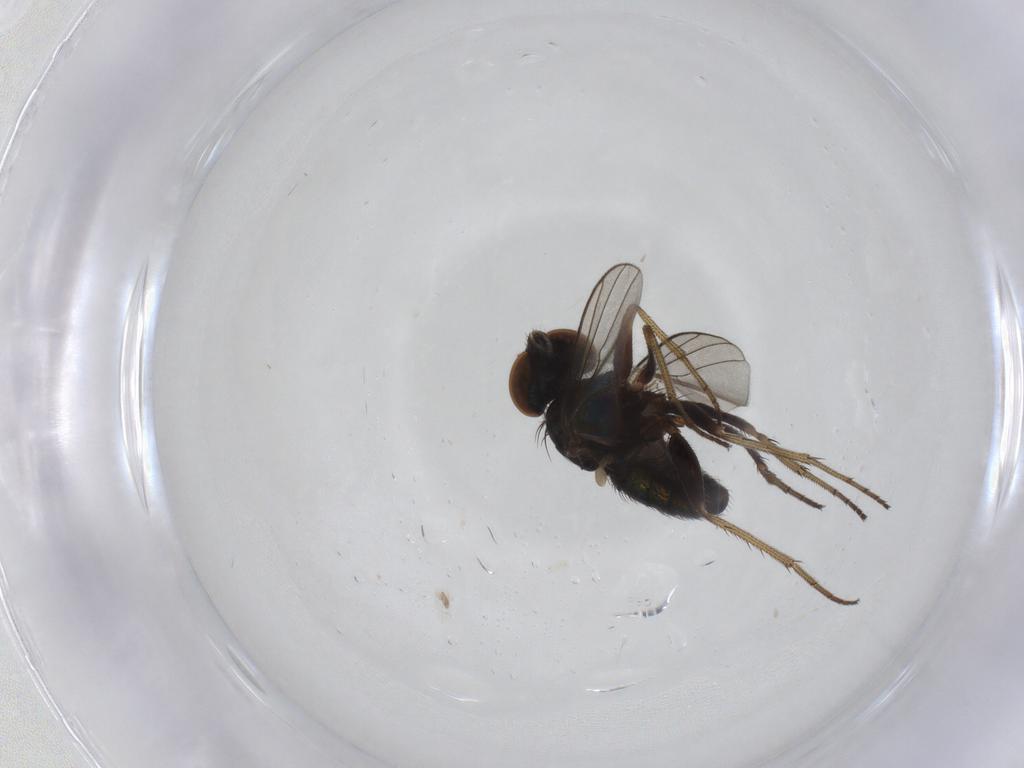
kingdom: Animalia
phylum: Arthropoda
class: Insecta
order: Diptera
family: Dolichopodidae
